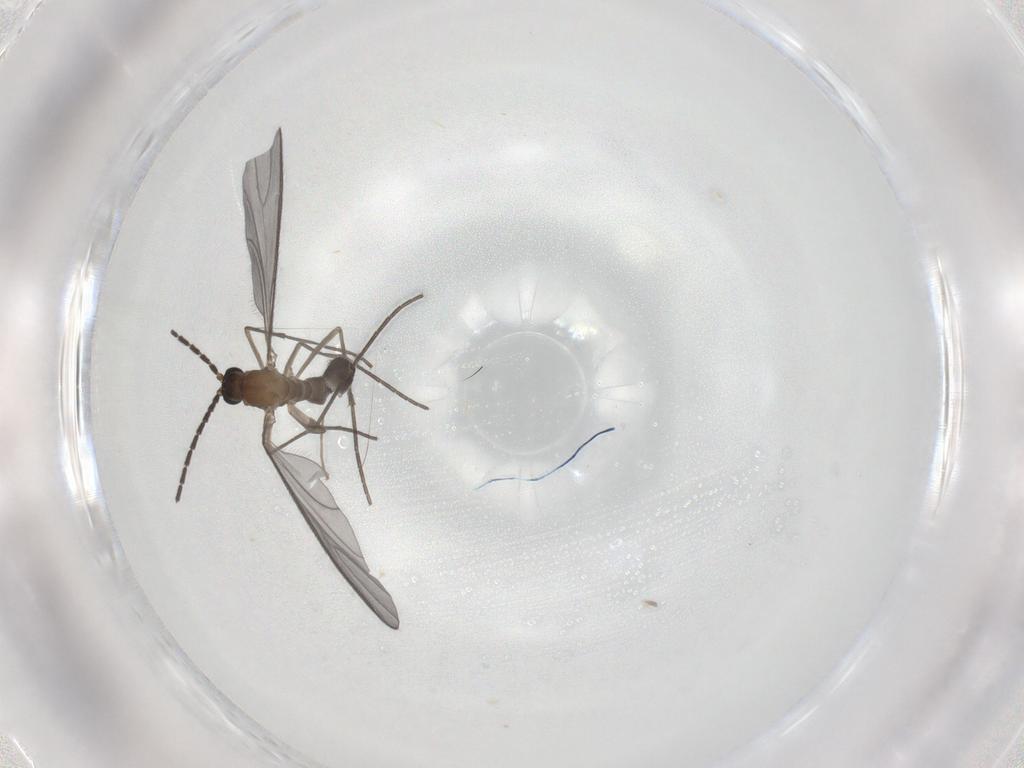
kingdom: Animalia
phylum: Arthropoda
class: Insecta
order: Diptera
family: Sciaridae
